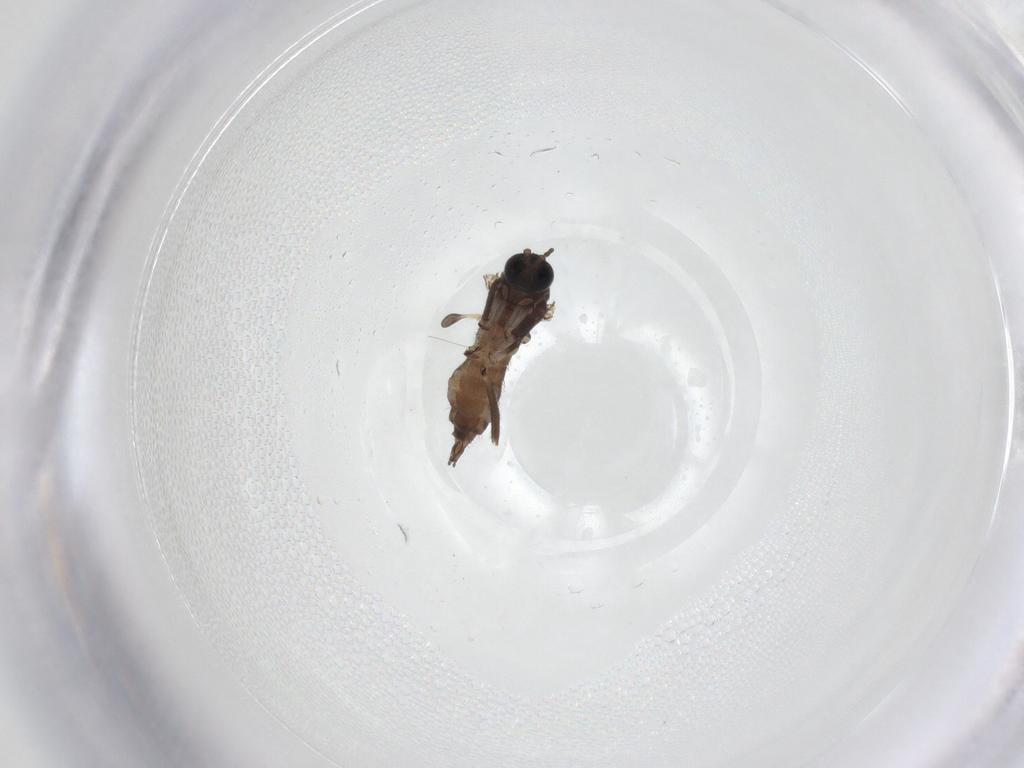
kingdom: Animalia
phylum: Arthropoda
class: Insecta
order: Diptera
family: Sciaridae
